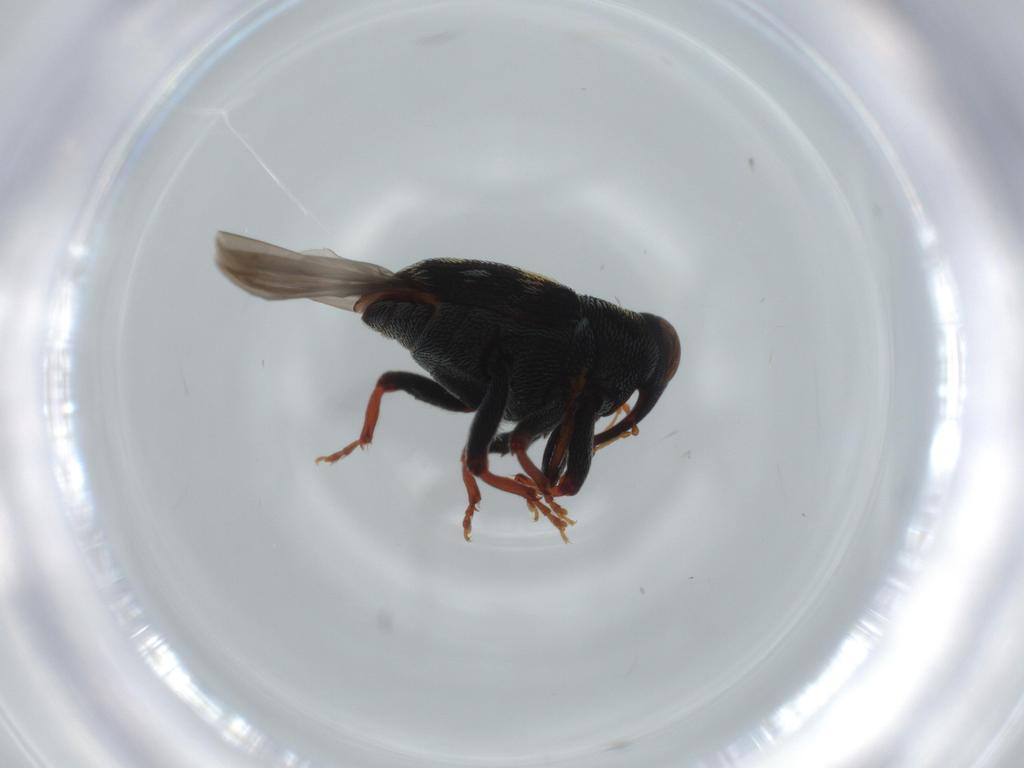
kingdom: Animalia
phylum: Arthropoda
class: Insecta
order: Coleoptera
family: Curculionidae
